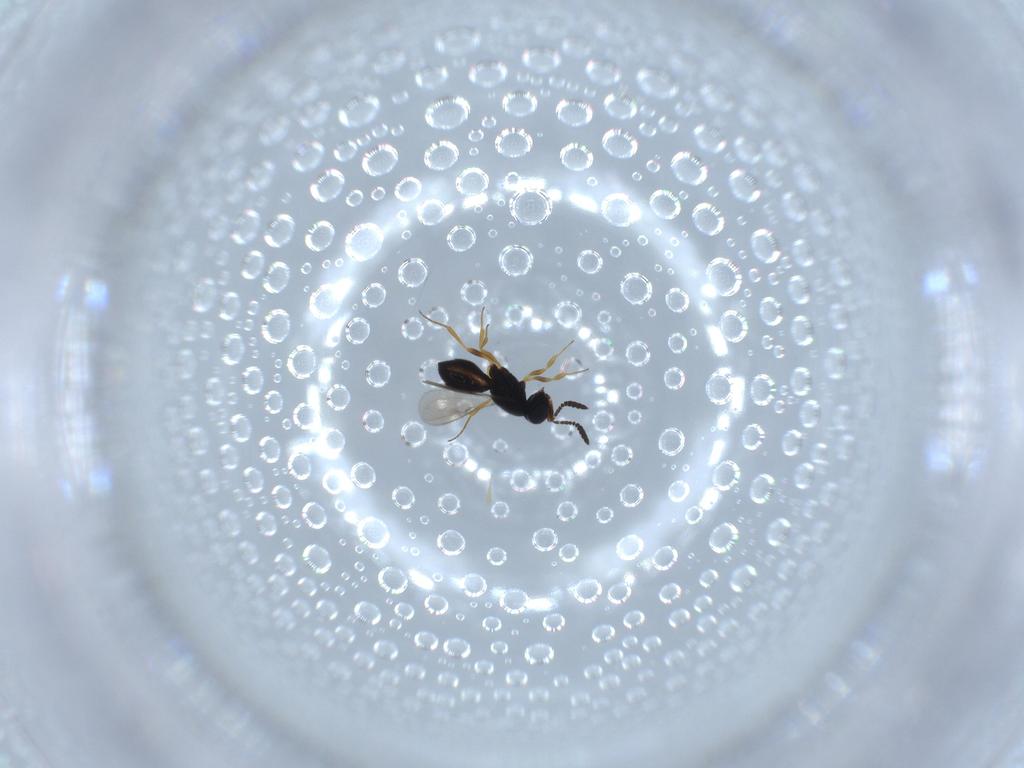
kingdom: Animalia
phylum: Arthropoda
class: Insecta
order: Hymenoptera
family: Scelionidae
